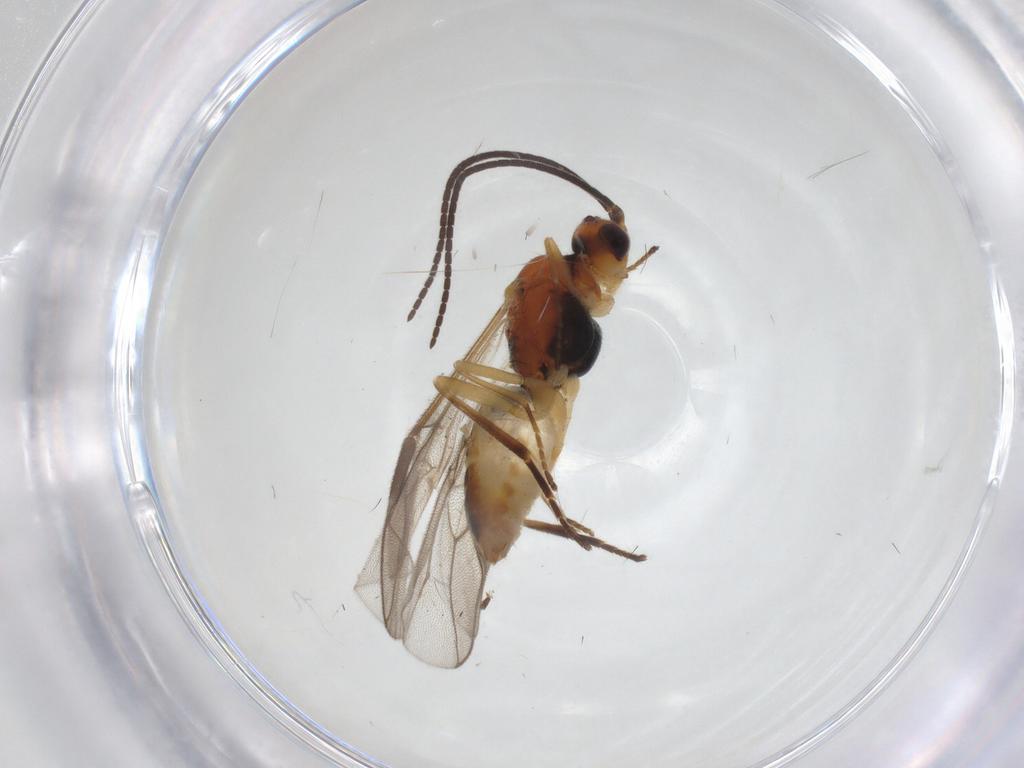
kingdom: Animalia
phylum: Arthropoda
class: Insecta
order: Hymenoptera
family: Braconidae
